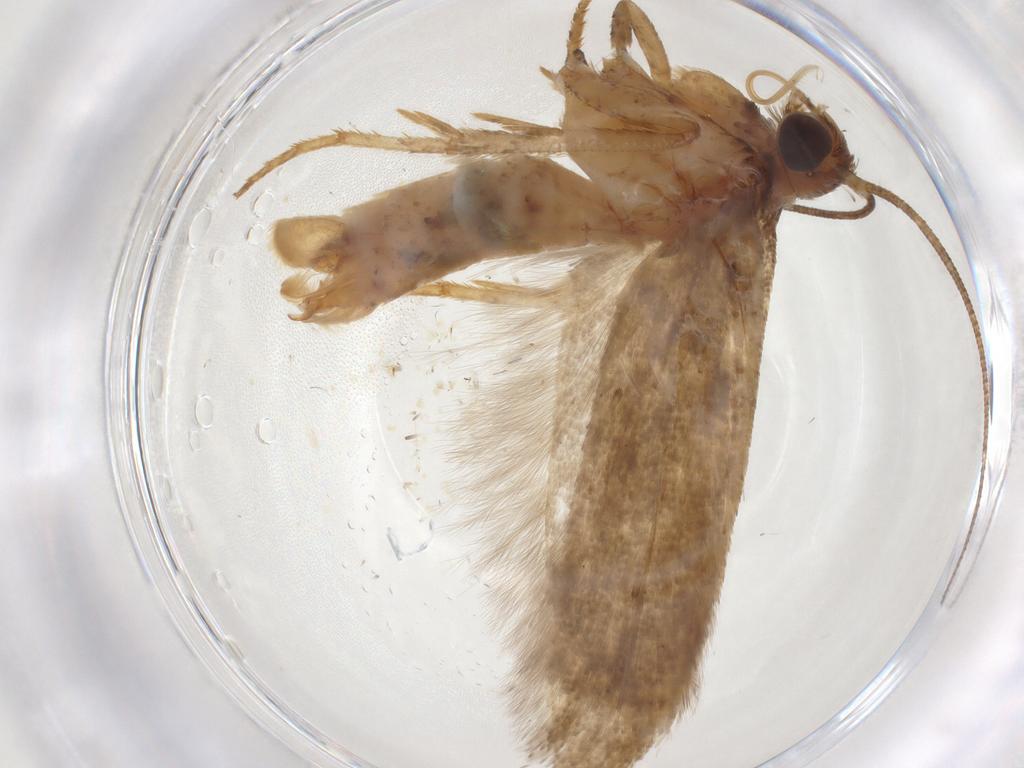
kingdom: Animalia
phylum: Arthropoda
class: Insecta
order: Lepidoptera
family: Gelechiidae
